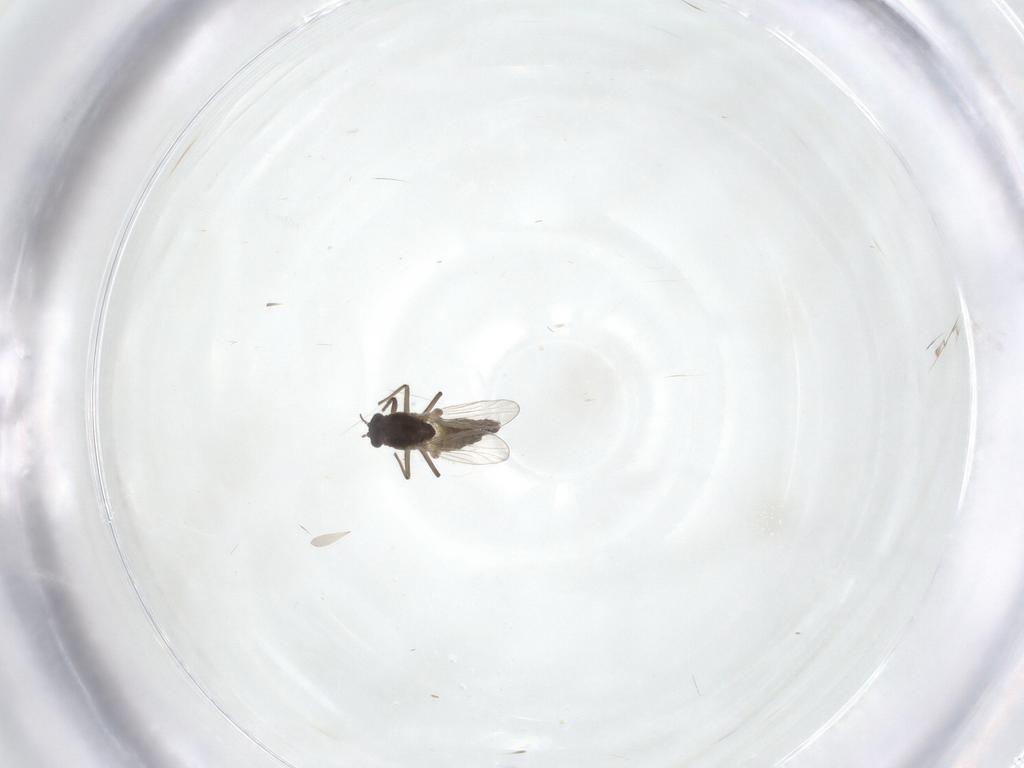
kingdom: Animalia
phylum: Arthropoda
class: Insecta
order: Diptera
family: Chironomidae
